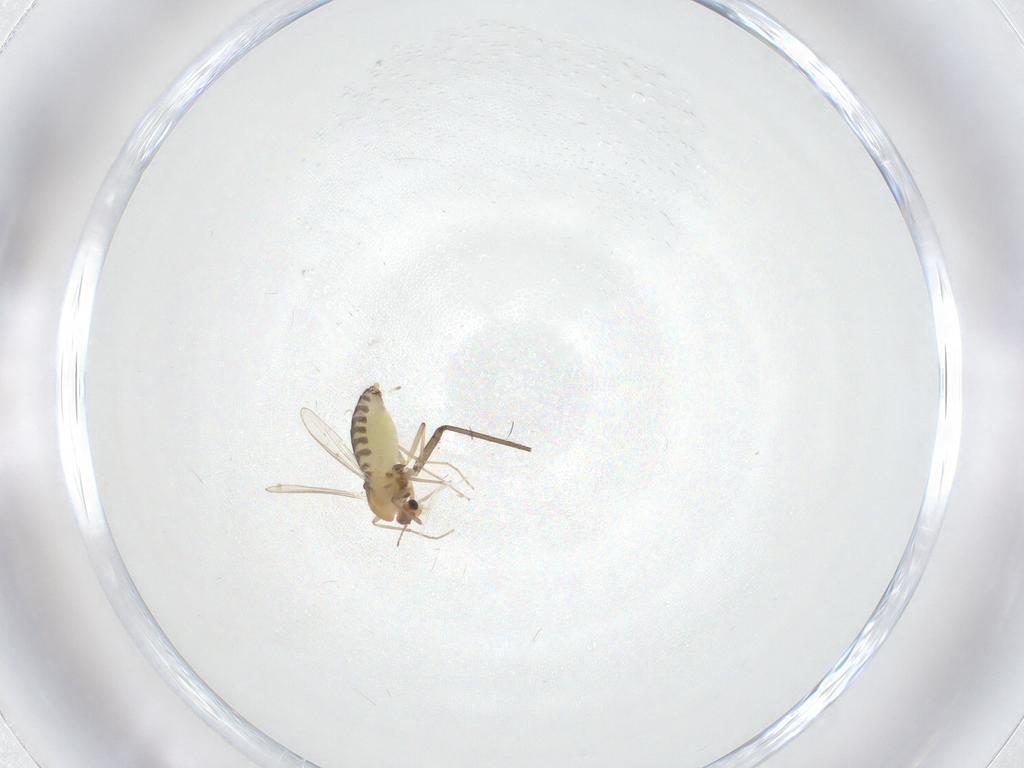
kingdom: Animalia
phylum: Arthropoda
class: Insecta
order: Diptera
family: Chironomidae
